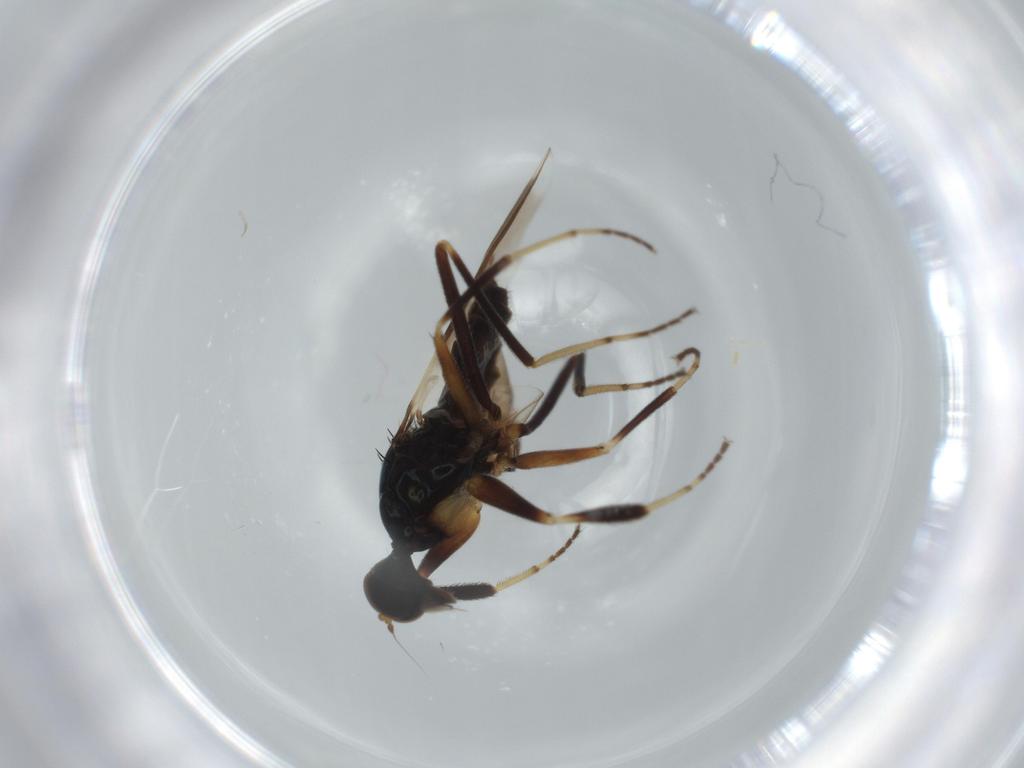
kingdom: Animalia
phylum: Arthropoda
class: Insecta
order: Diptera
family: Hybotidae
